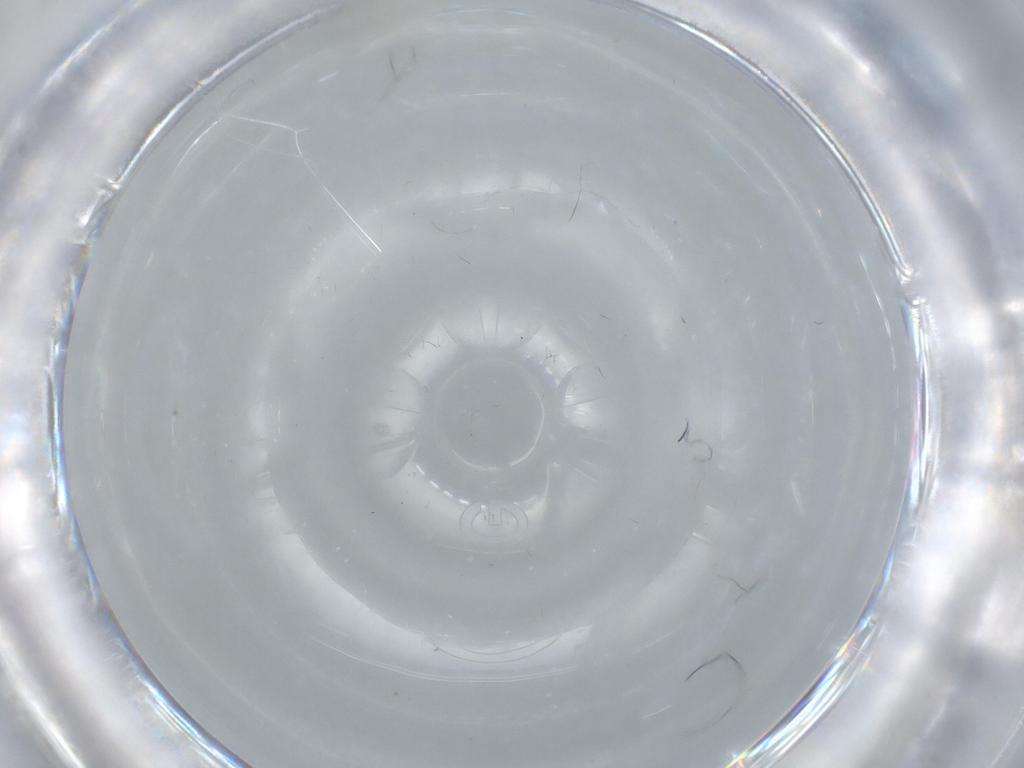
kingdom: Animalia
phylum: Arthropoda
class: Insecta
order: Diptera
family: Ceratopogonidae
